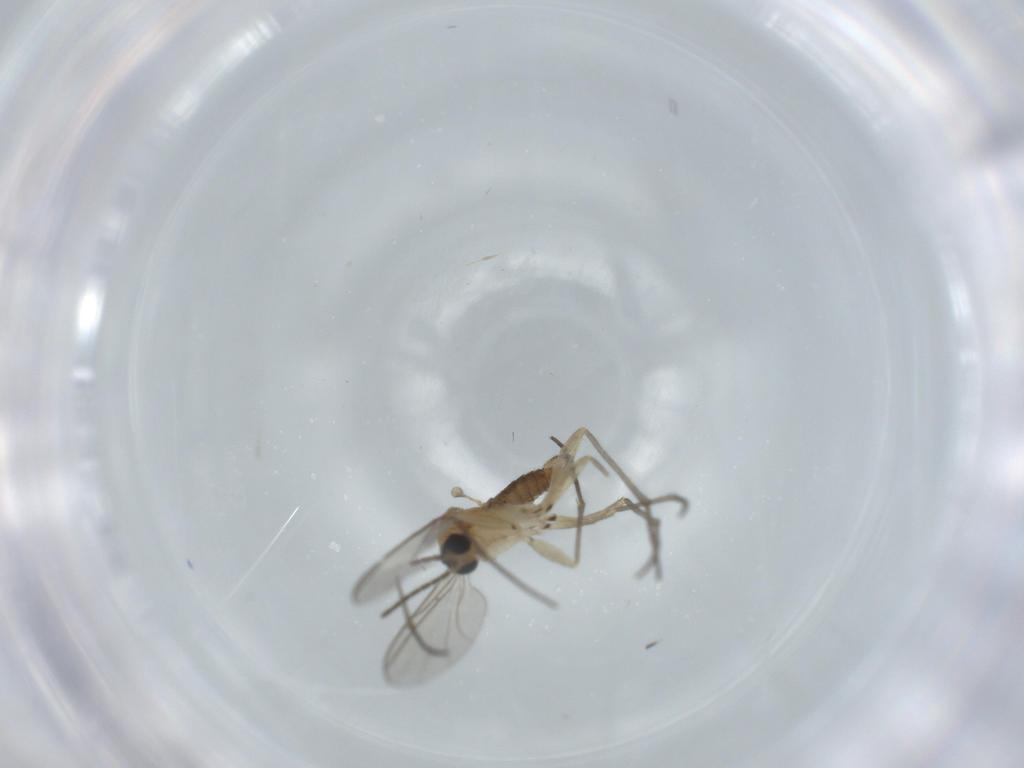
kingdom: Animalia
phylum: Arthropoda
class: Insecta
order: Diptera
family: Sciaridae
